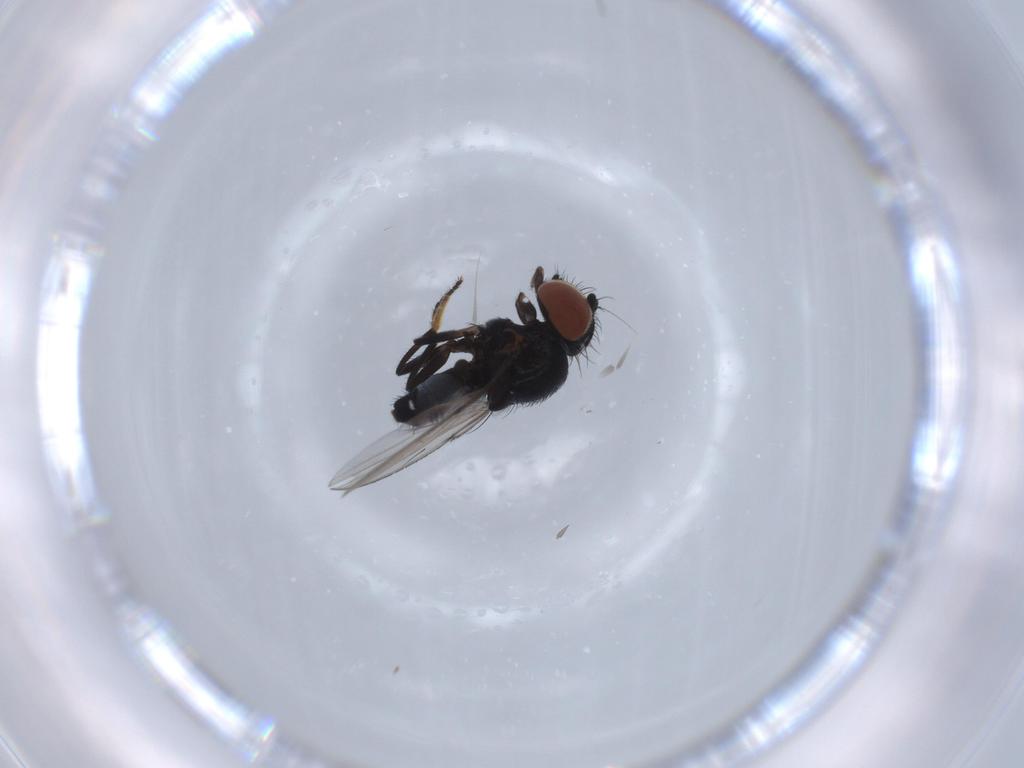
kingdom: Animalia
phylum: Arthropoda
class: Insecta
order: Diptera
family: Milichiidae
